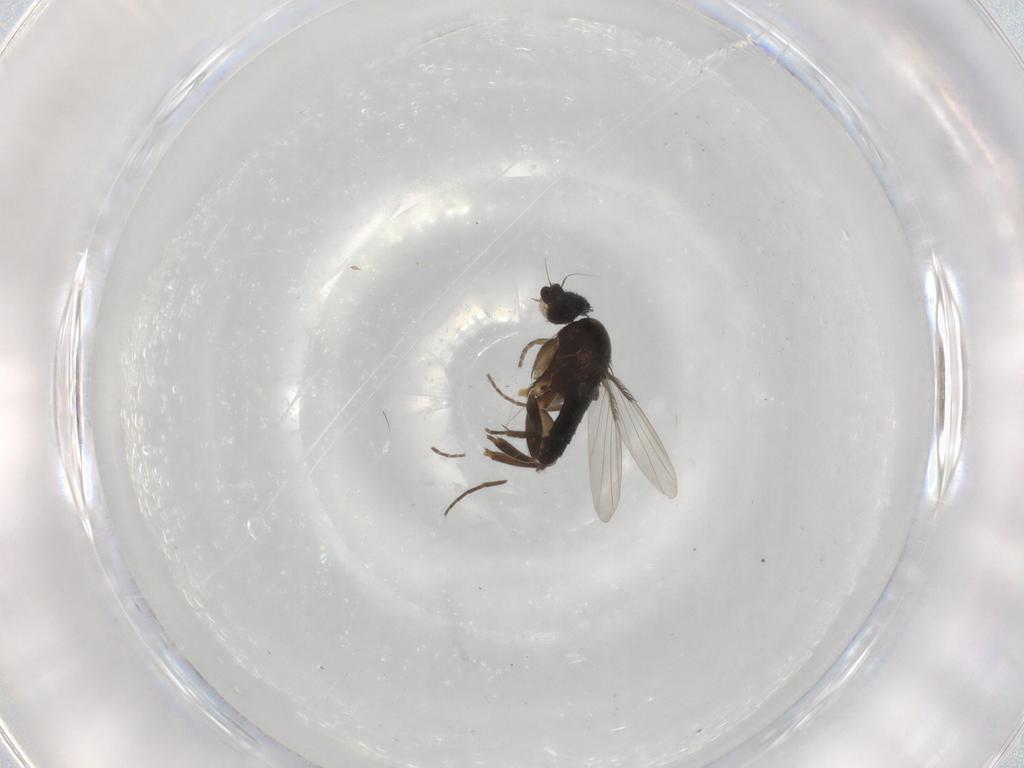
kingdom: Animalia
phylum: Arthropoda
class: Insecta
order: Diptera
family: Phoridae
